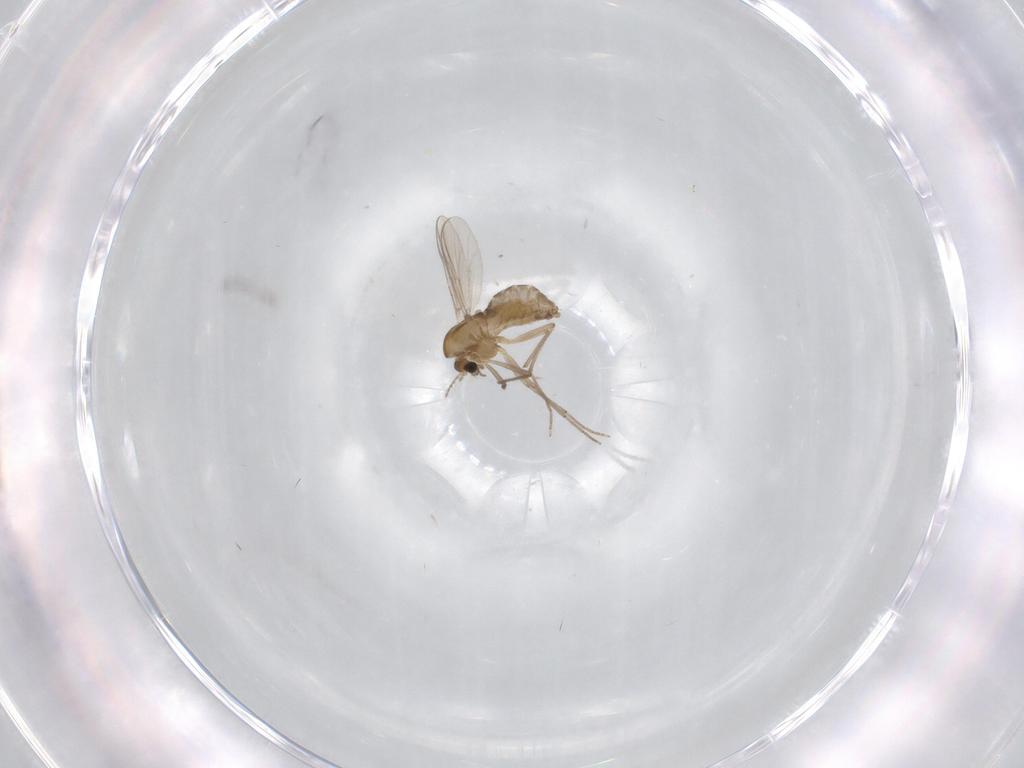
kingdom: Animalia
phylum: Arthropoda
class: Insecta
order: Diptera
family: Chironomidae
